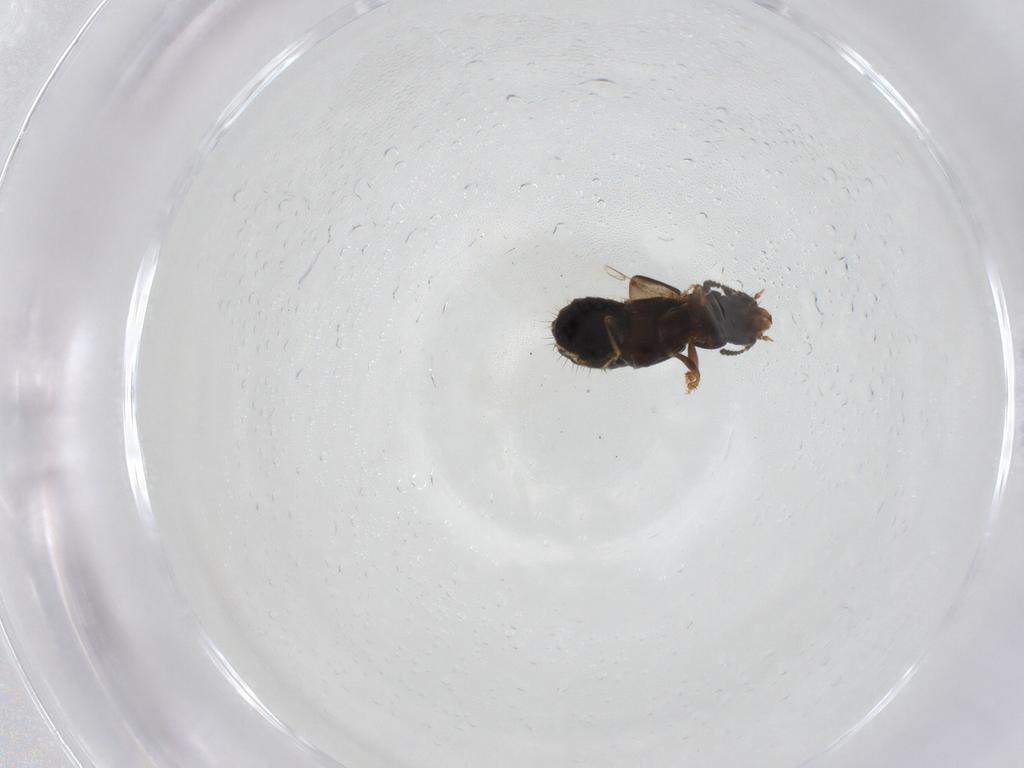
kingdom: Animalia
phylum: Arthropoda
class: Insecta
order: Coleoptera
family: Staphylinidae
